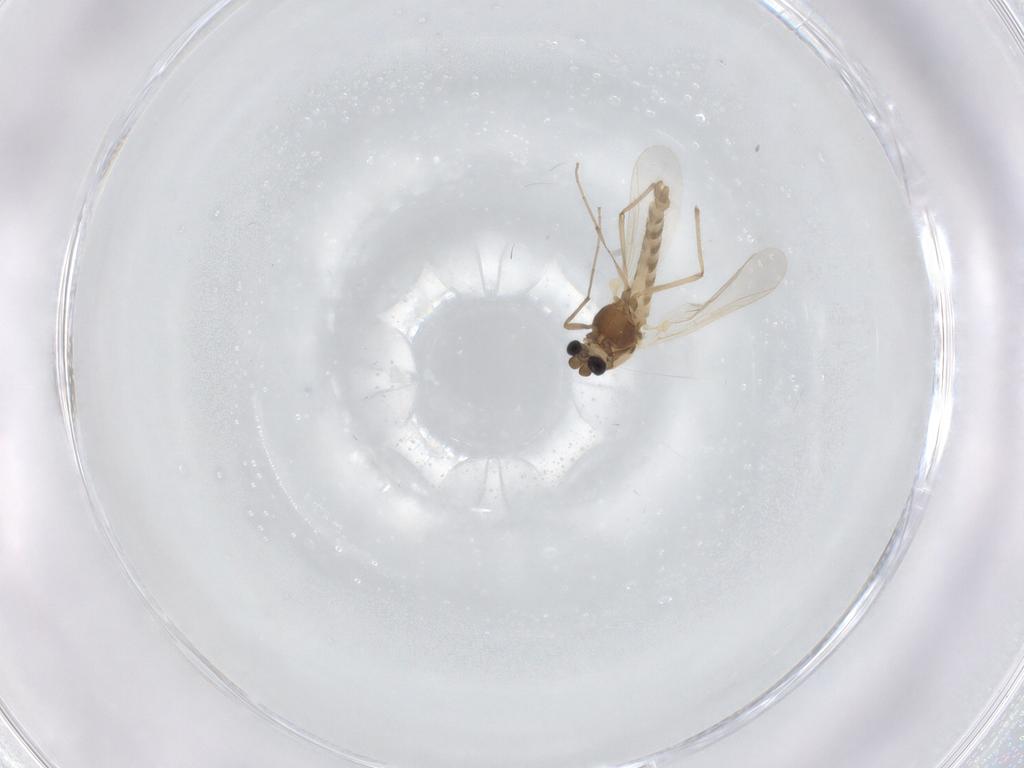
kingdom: Animalia
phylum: Arthropoda
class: Insecta
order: Diptera
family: Chironomidae
